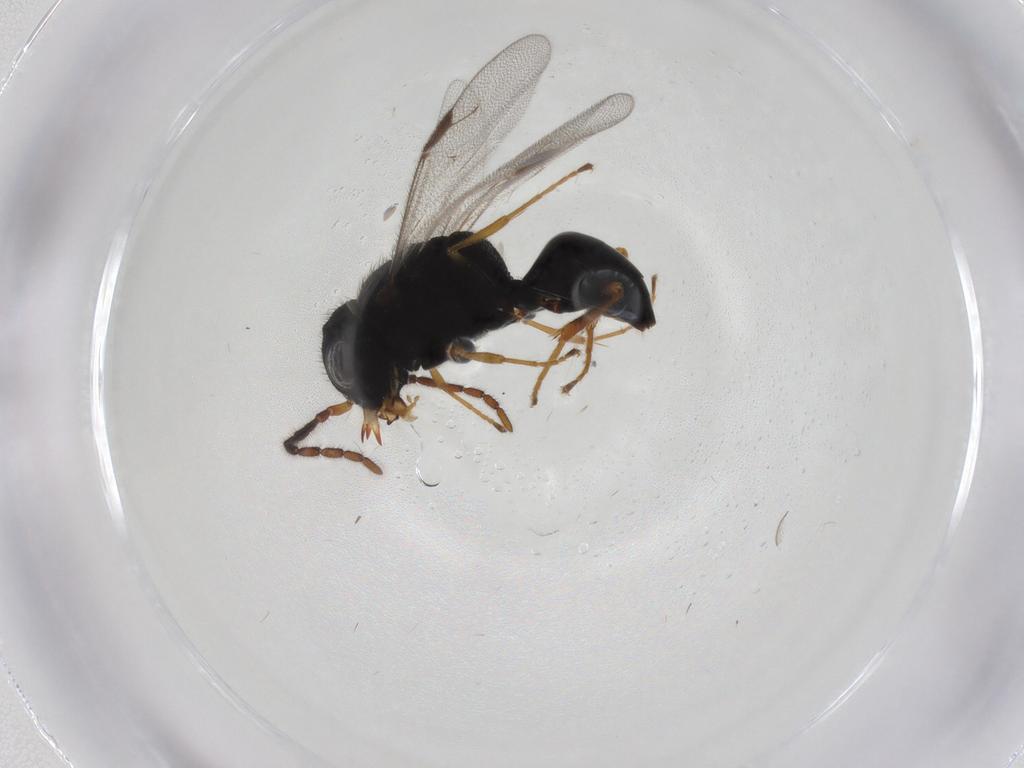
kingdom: Animalia
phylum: Arthropoda
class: Insecta
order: Hymenoptera
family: Dryinidae
